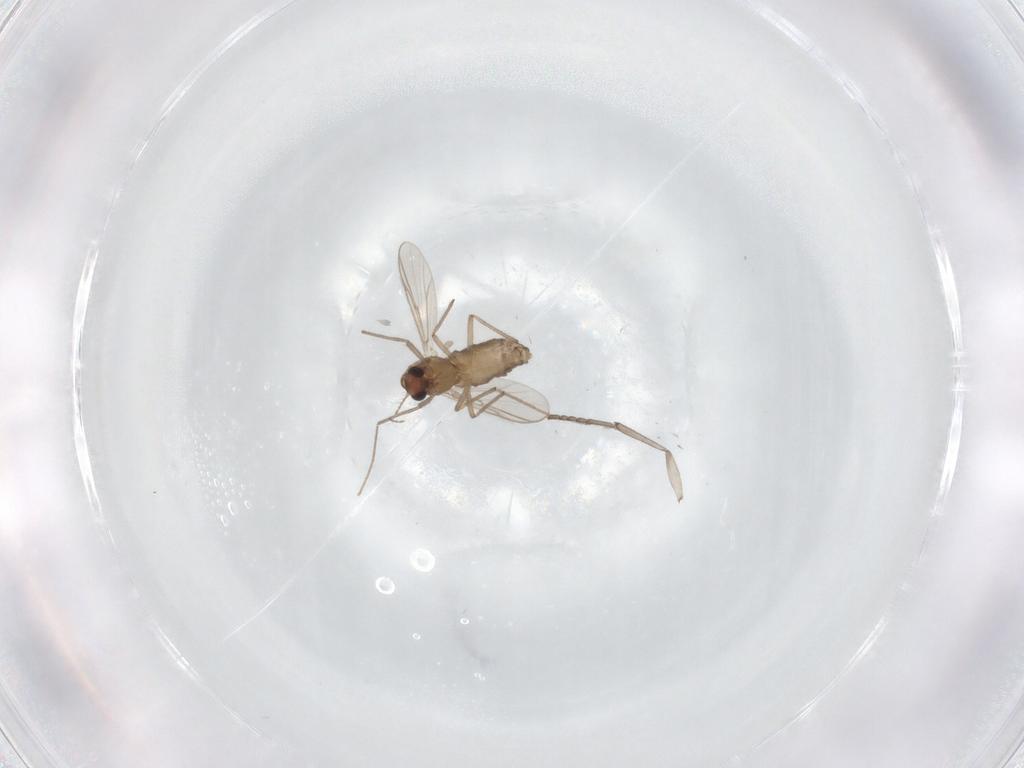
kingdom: Animalia
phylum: Arthropoda
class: Insecta
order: Diptera
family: Chironomidae
